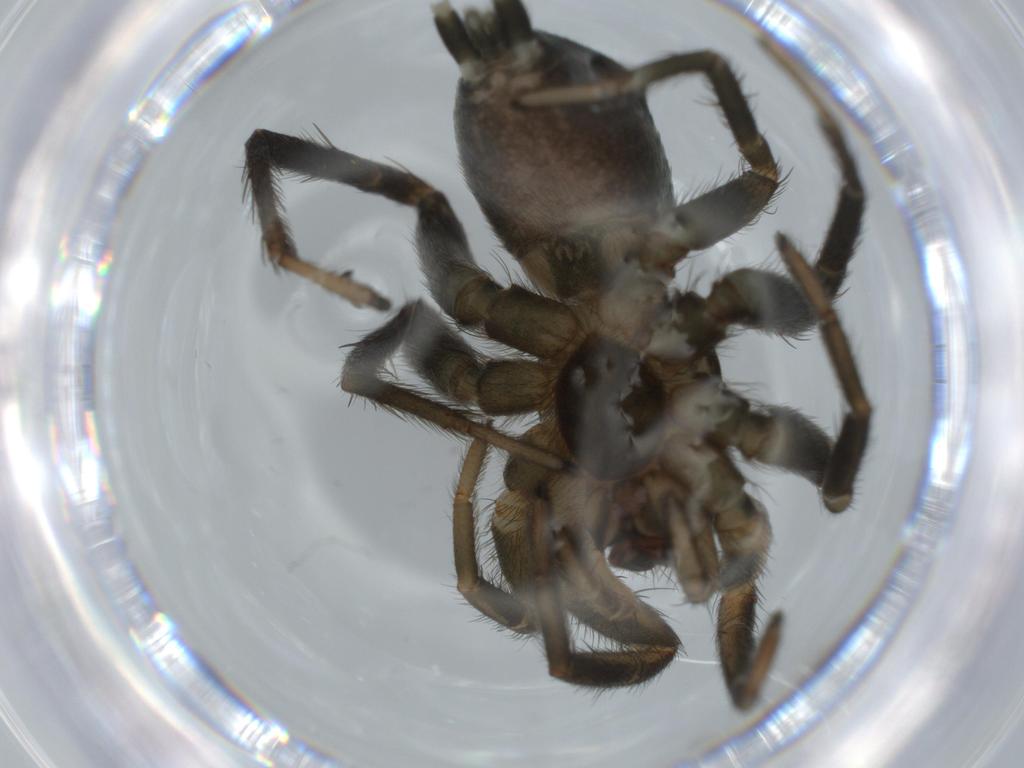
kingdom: Animalia
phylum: Arthropoda
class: Arachnida
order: Araneae
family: Gnaphosidae
